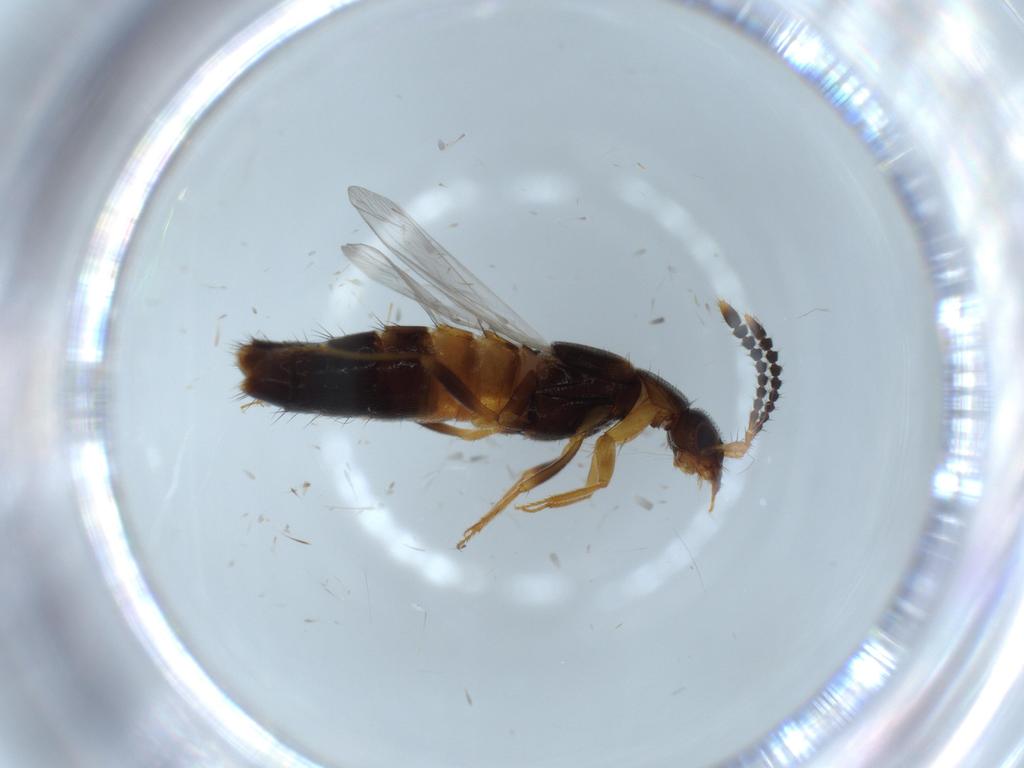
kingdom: Animalia
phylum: Arthropoda
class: Insecta
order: Coleoptera
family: Staphylinidae
